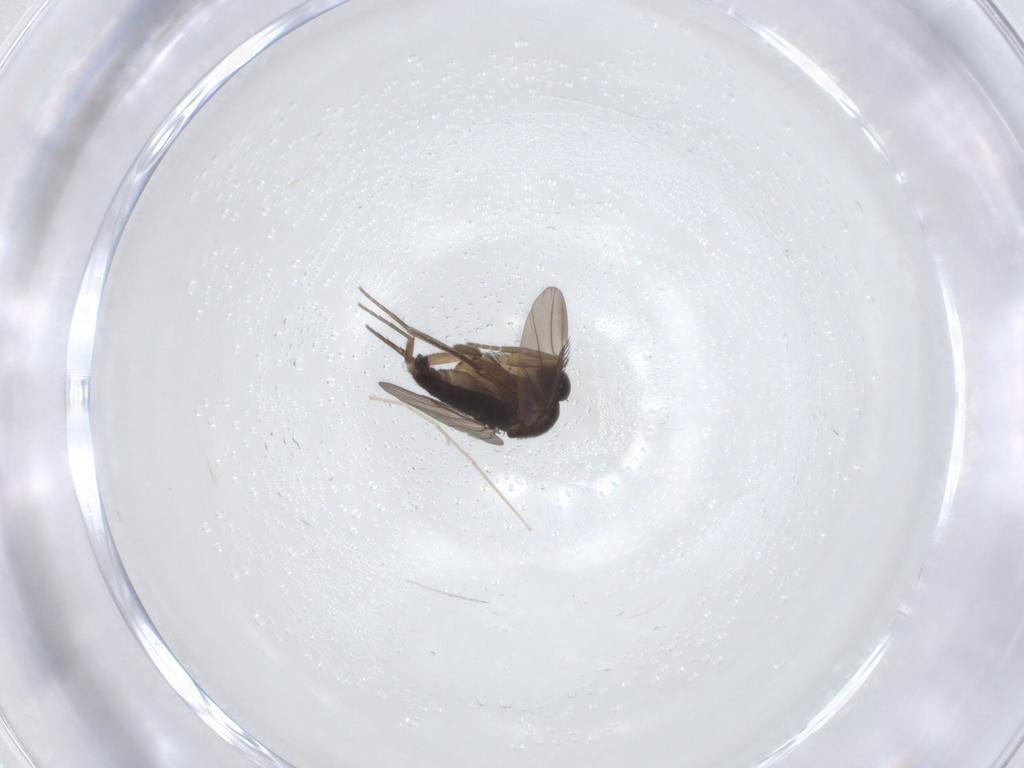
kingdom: Animalia
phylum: Arthropoda
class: Insecta
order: Diptera
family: Phoridae
